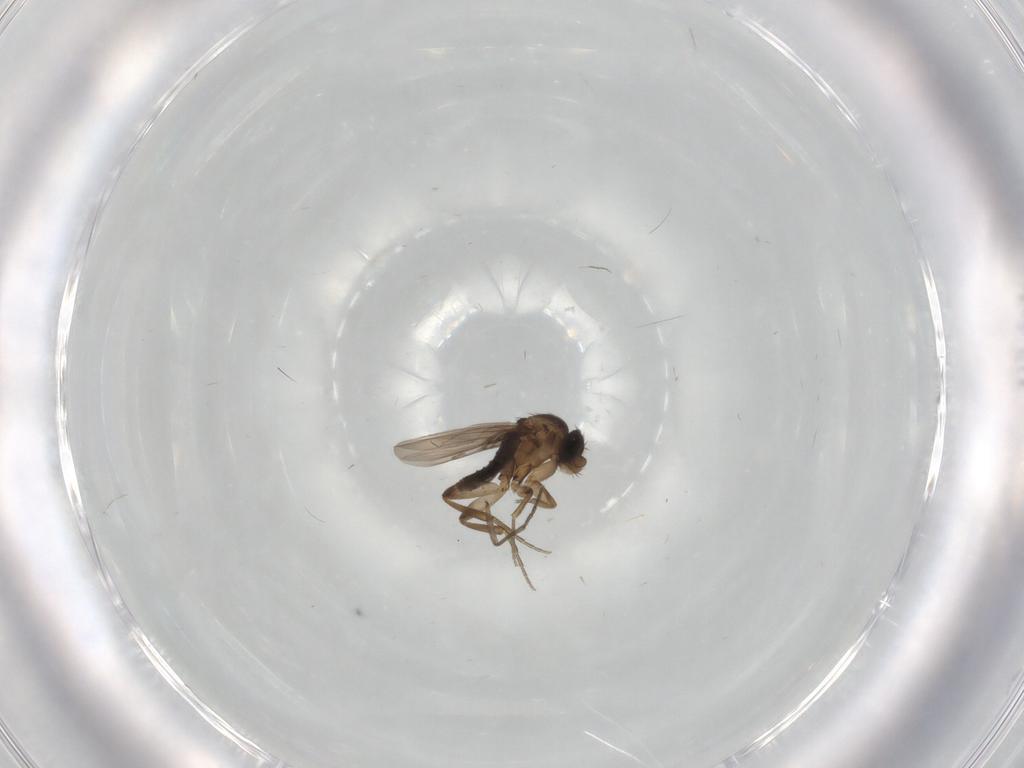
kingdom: Animalia
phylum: Arthropoda
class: Insecta
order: Diptera
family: Phoridae
